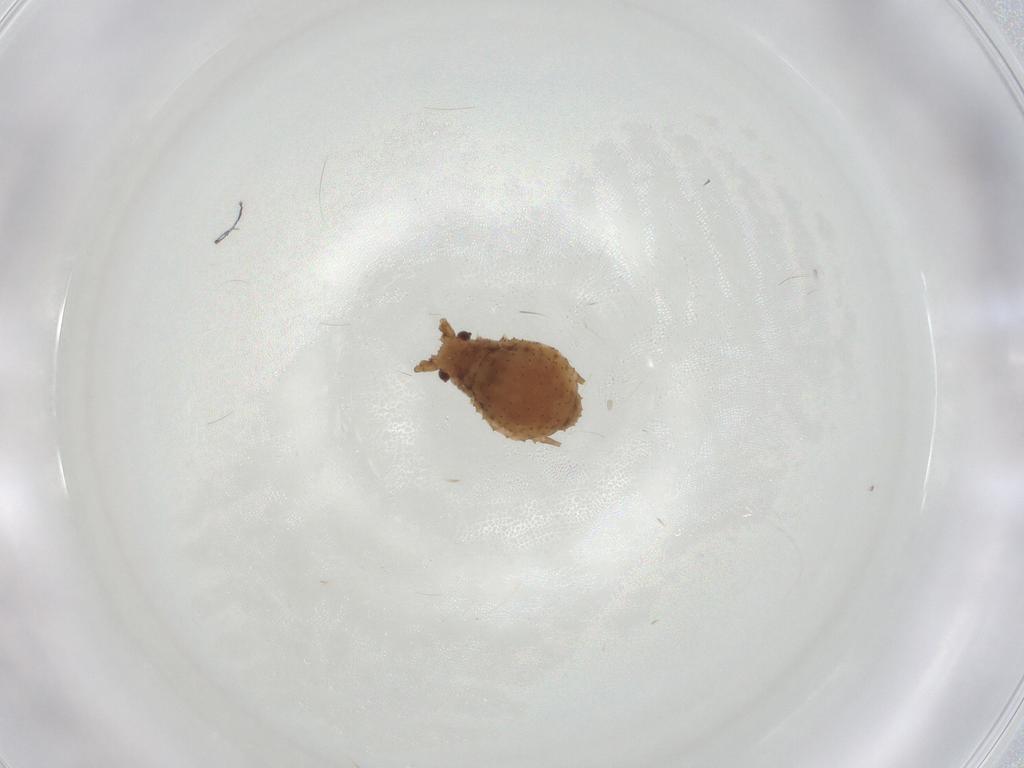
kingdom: Animalia
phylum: Arthropoda
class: Insecta
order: Hemiptera
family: Aphididae
